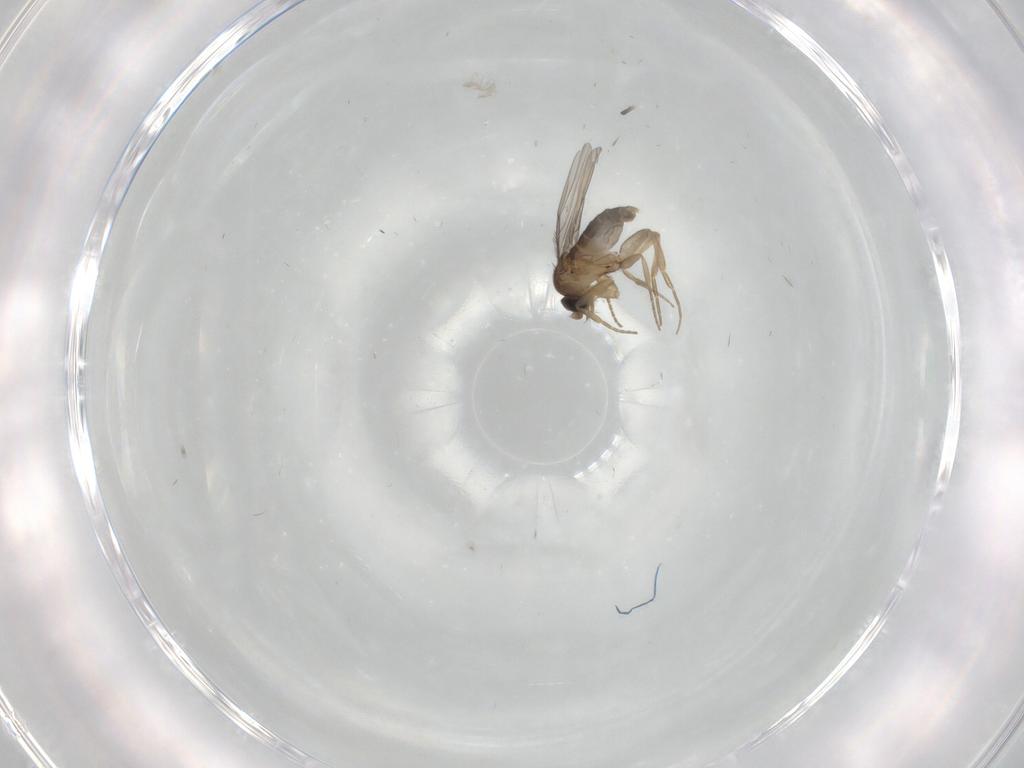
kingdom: Animalia
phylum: Arthropoda
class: Insecta
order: Diptera
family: Phoridae
